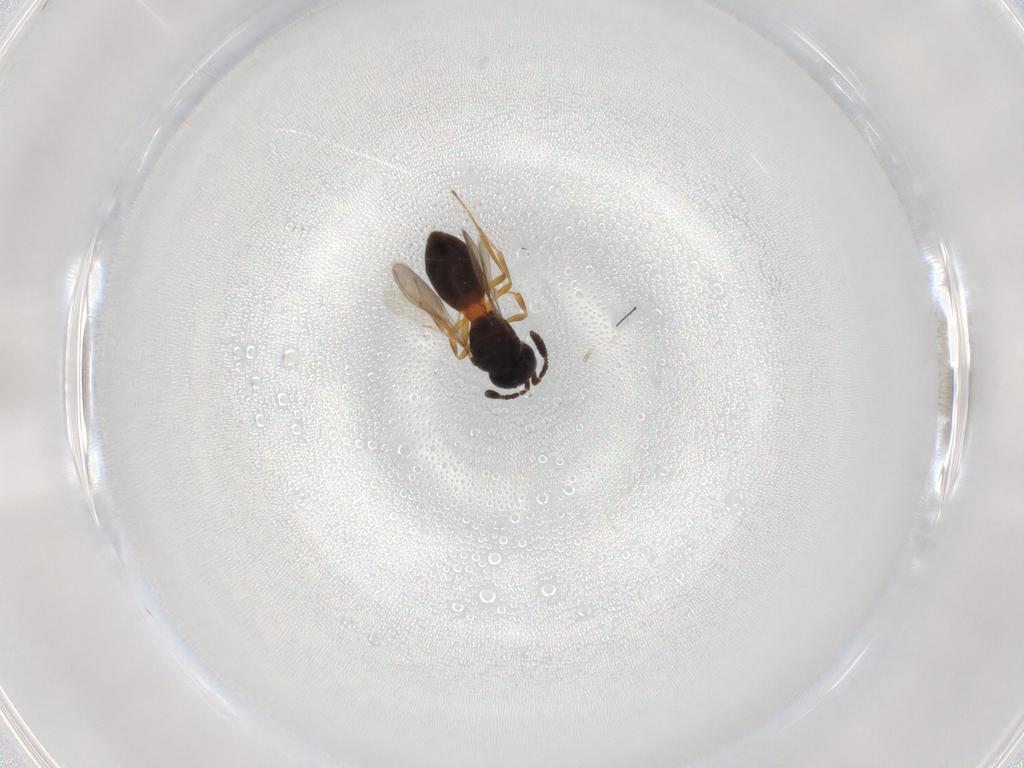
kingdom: Animalia
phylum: Arthropoda
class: Insecta
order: Hymenoptera
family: Scelionidae
